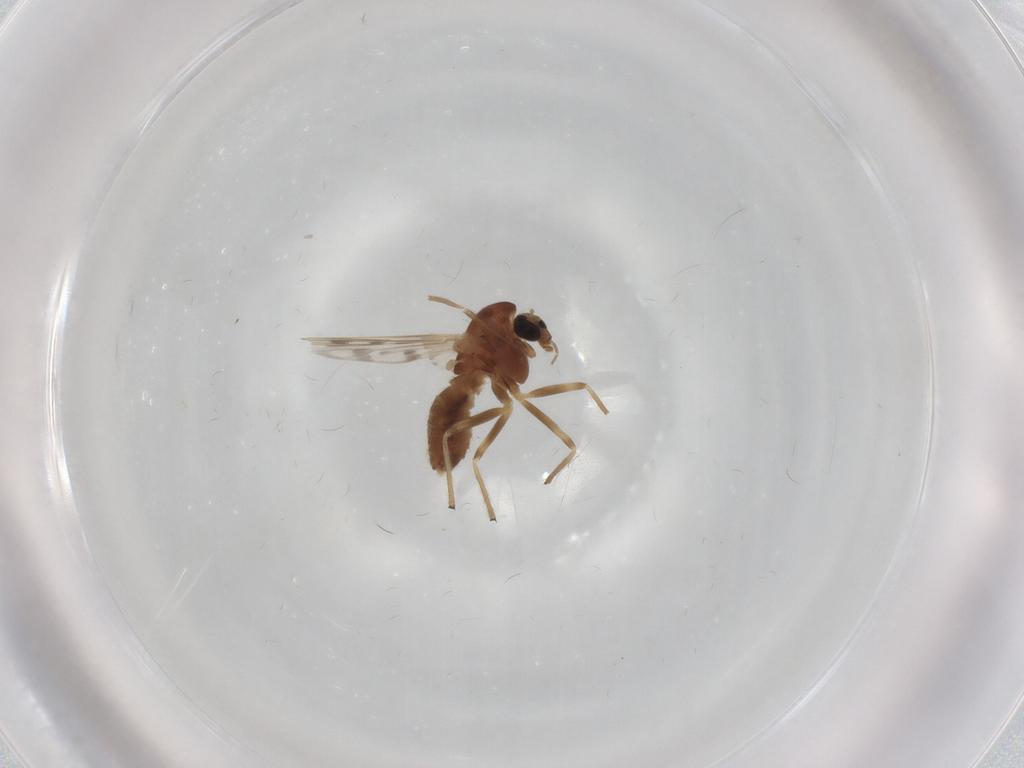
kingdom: Animalia
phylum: Arthropoda
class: Insecta
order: Diptera
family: Chironomidae
